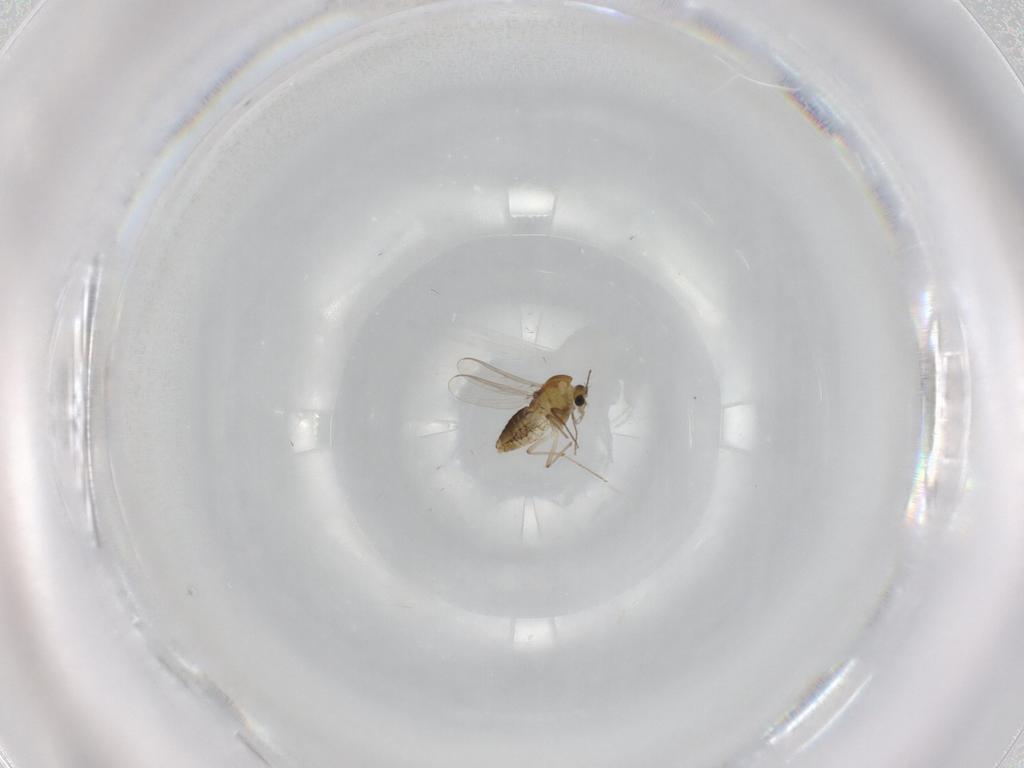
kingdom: Animalia
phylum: Arthropoda
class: Insecta
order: Diptera
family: Chironomidae
